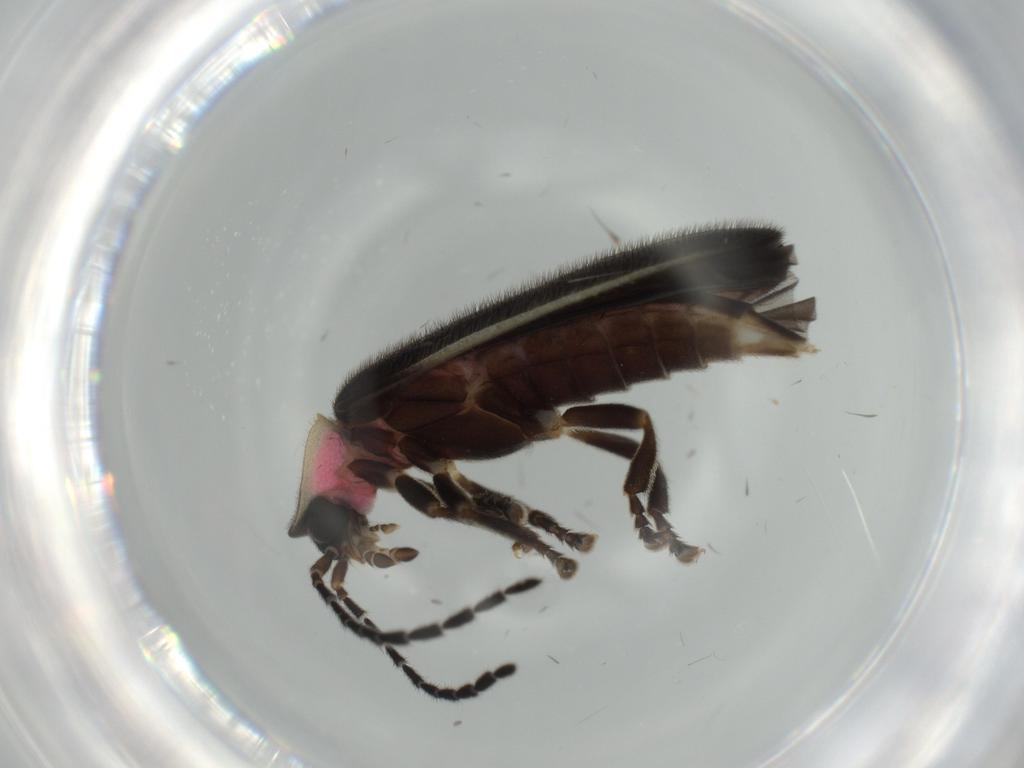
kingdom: Animalia
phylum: Arthropoda
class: Insecta
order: Coleoptera
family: Lampyridae
